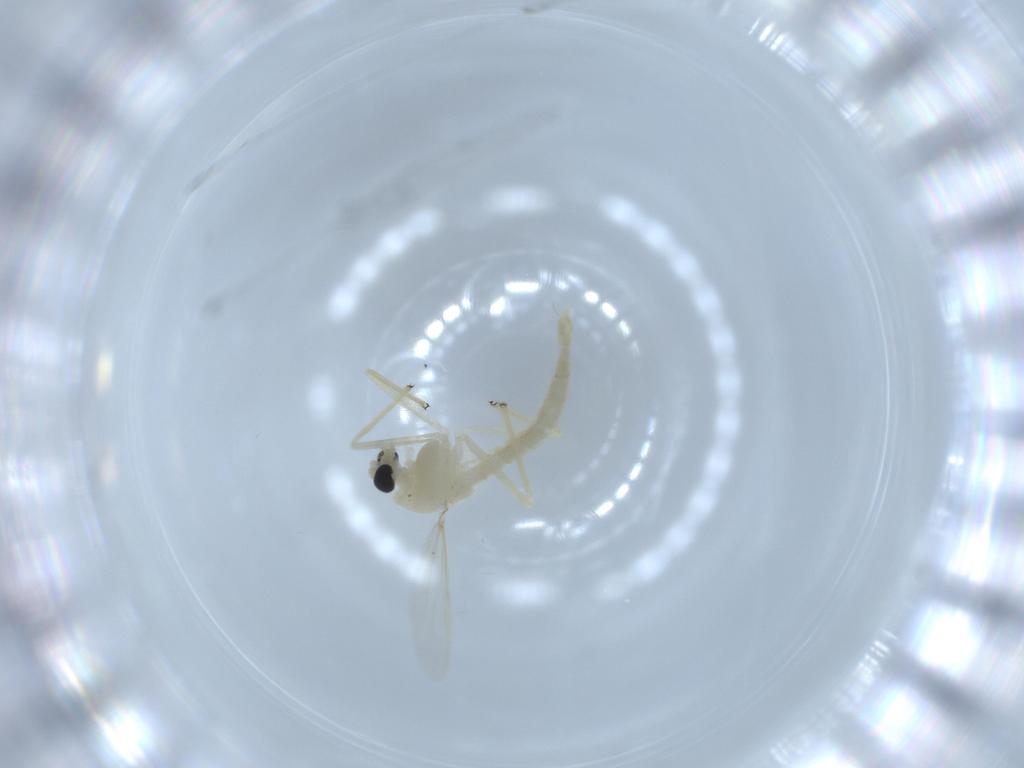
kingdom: Animalia
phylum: Arthropoda
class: Insecta
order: Diptera
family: Chironomidae
